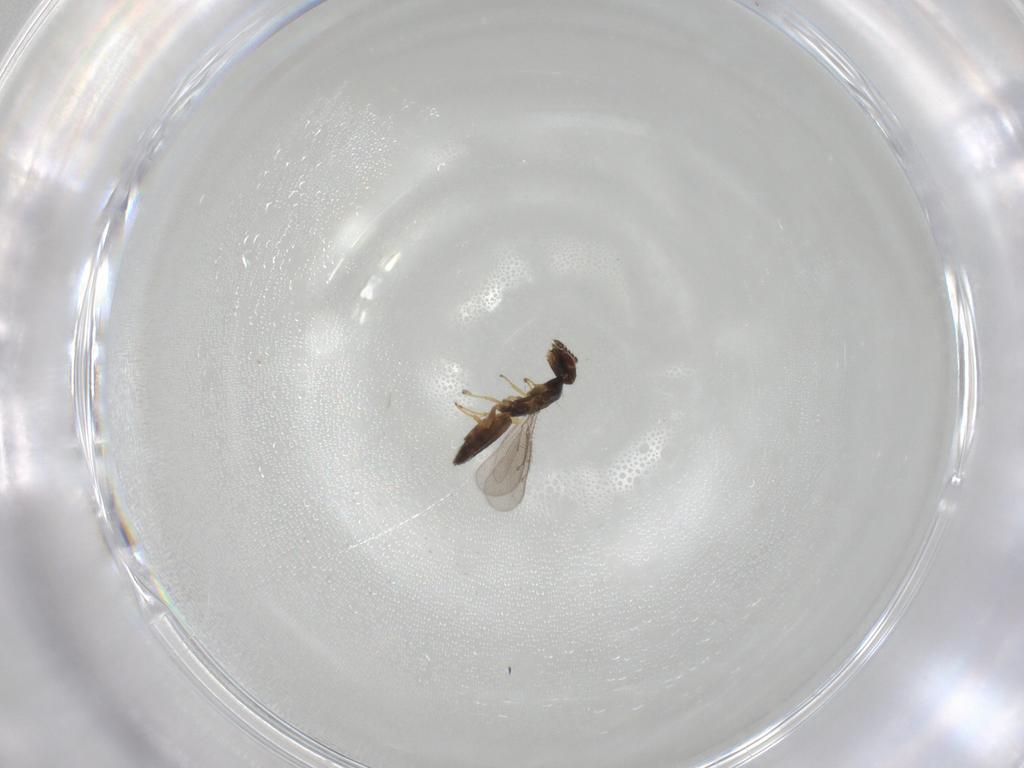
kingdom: Animalia
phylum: Arthropoda
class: Insecta
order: Hymenoptera
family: Eulophidae
